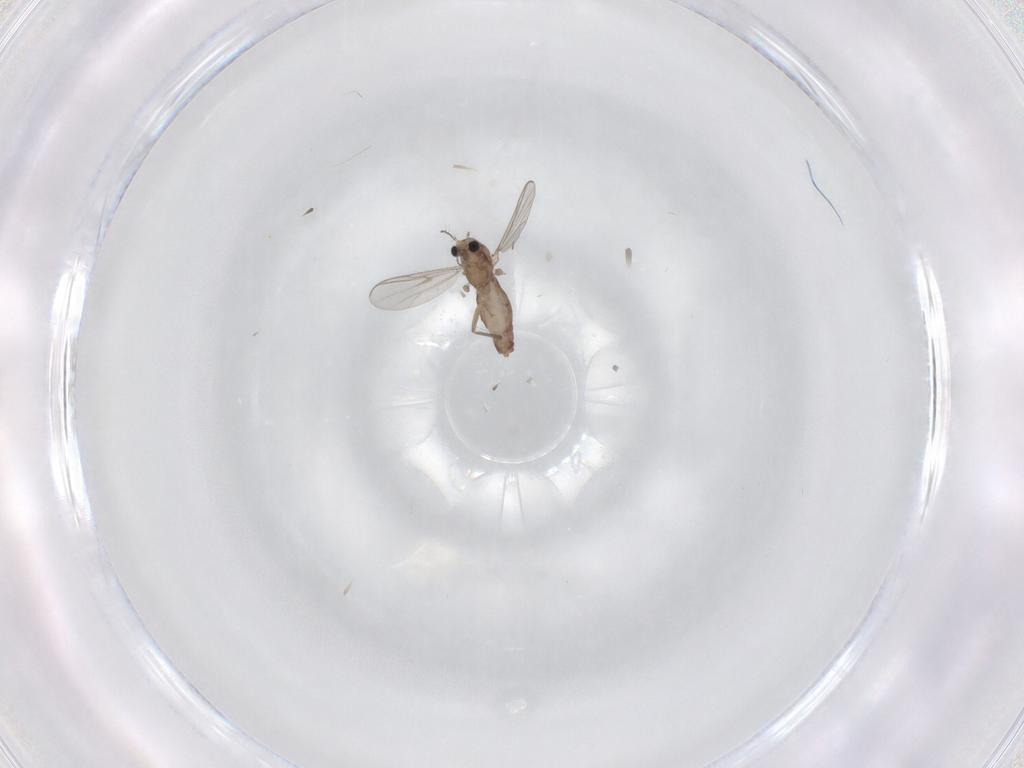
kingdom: Animalia
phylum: Arthropoda
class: Insecta
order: Diptera
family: Chironomidae
